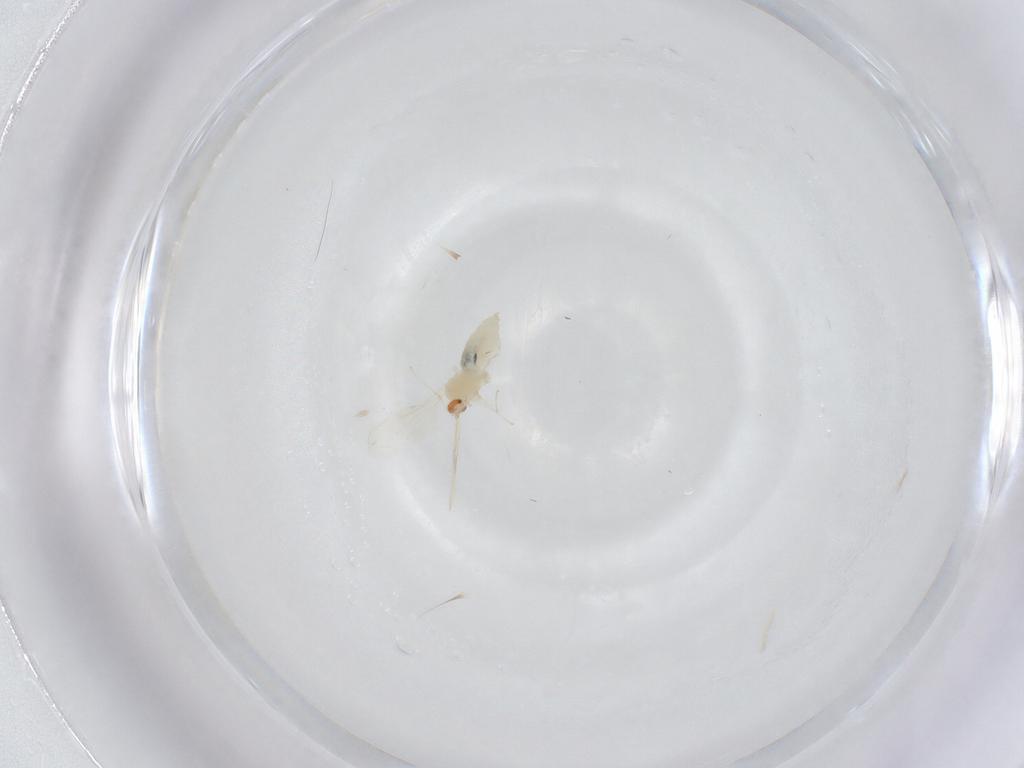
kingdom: Animalia
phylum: Arthropoda
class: Insecta
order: Diptera
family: Cecidomyiidae
